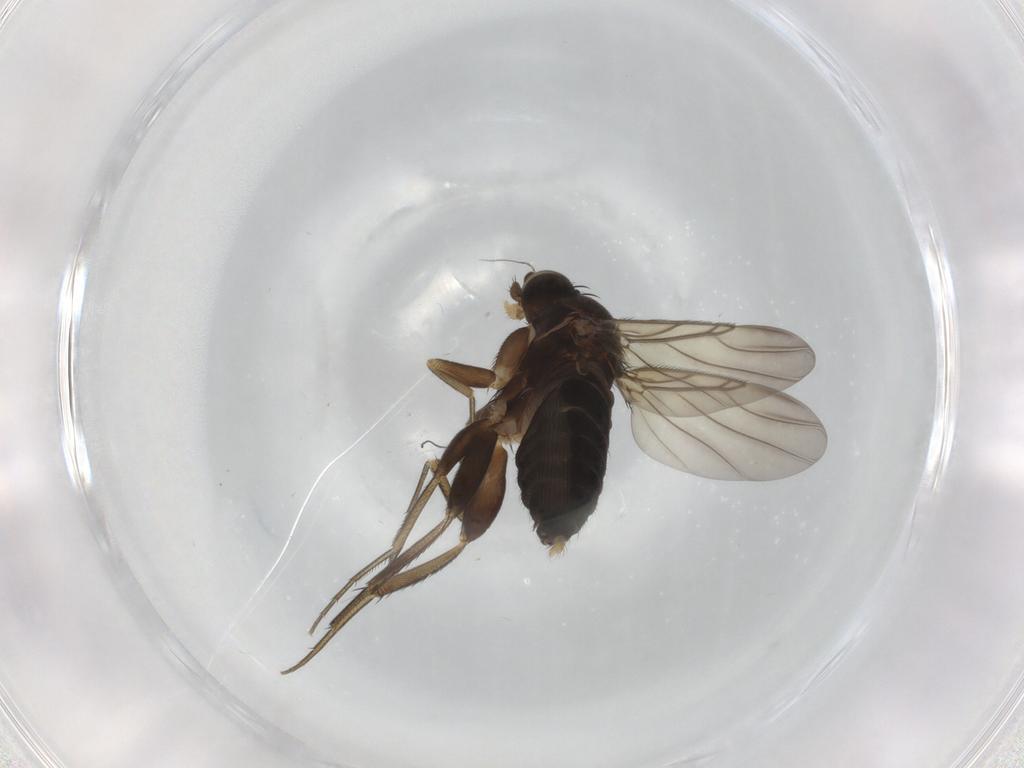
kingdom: Animalia
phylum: Arthropoda
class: Insecta
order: Diptera
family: Phoridae
